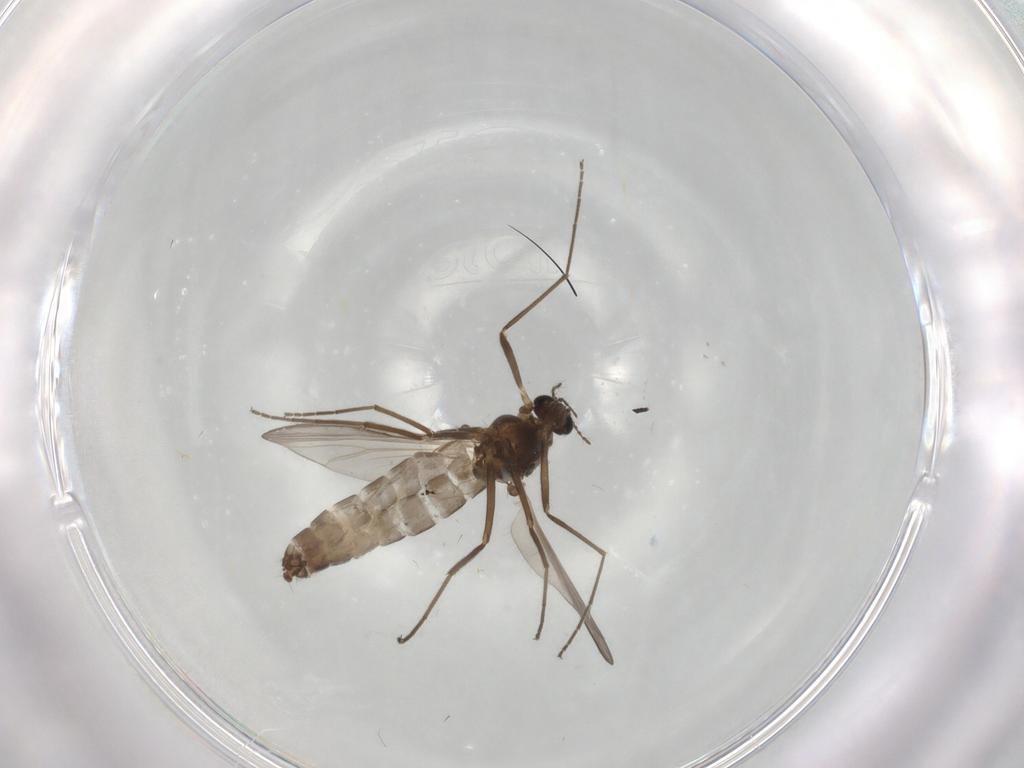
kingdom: Animalia
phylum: Arthropoda
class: Insecta
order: Diptera
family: Chironomidae
